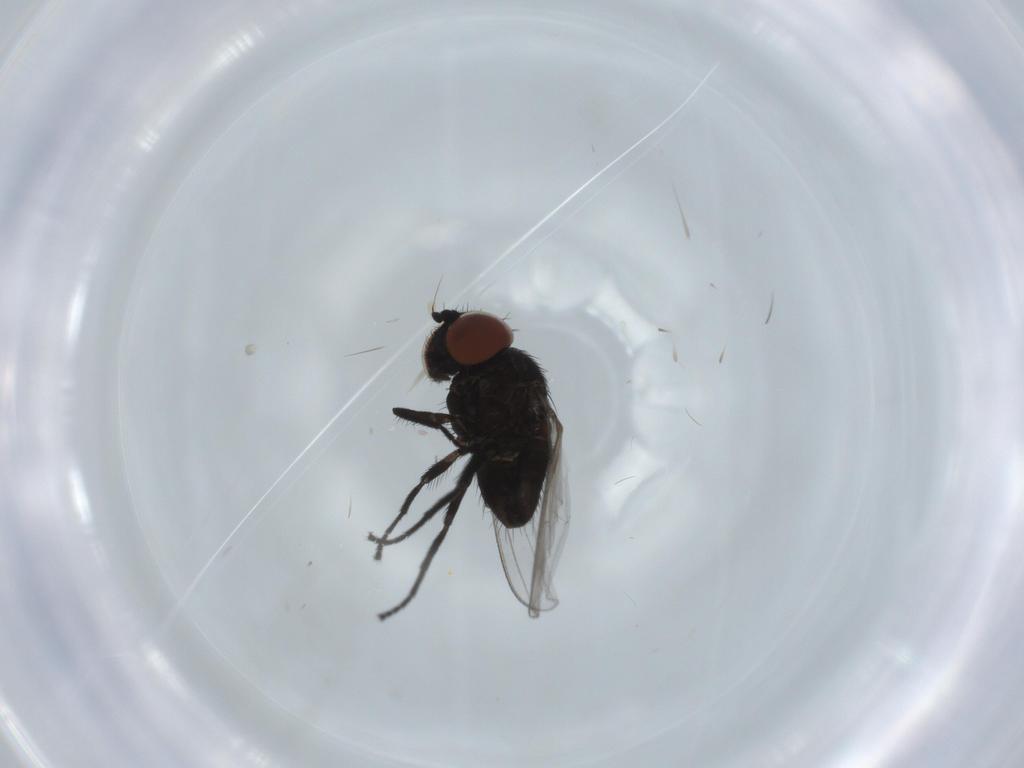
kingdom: Animalia
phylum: Arthropoda
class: Insecta
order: Diptera
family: Milichiidae
